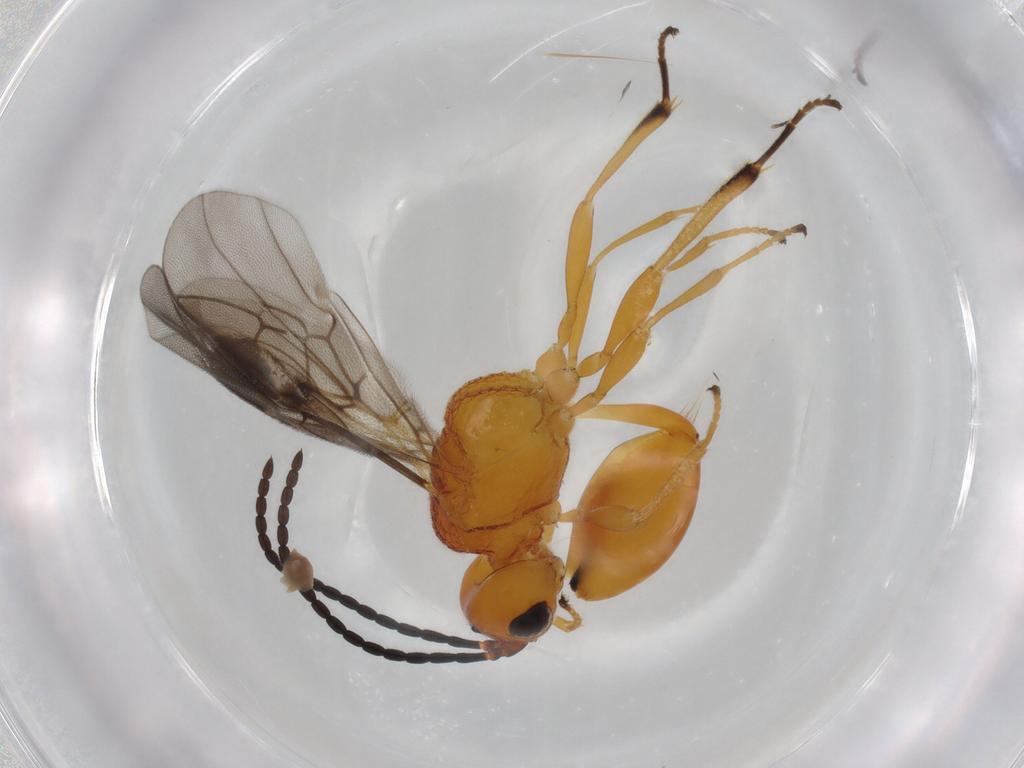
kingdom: Animalia
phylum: Arthropoda
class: Insecta
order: Hymenoptera
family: Braconidae
